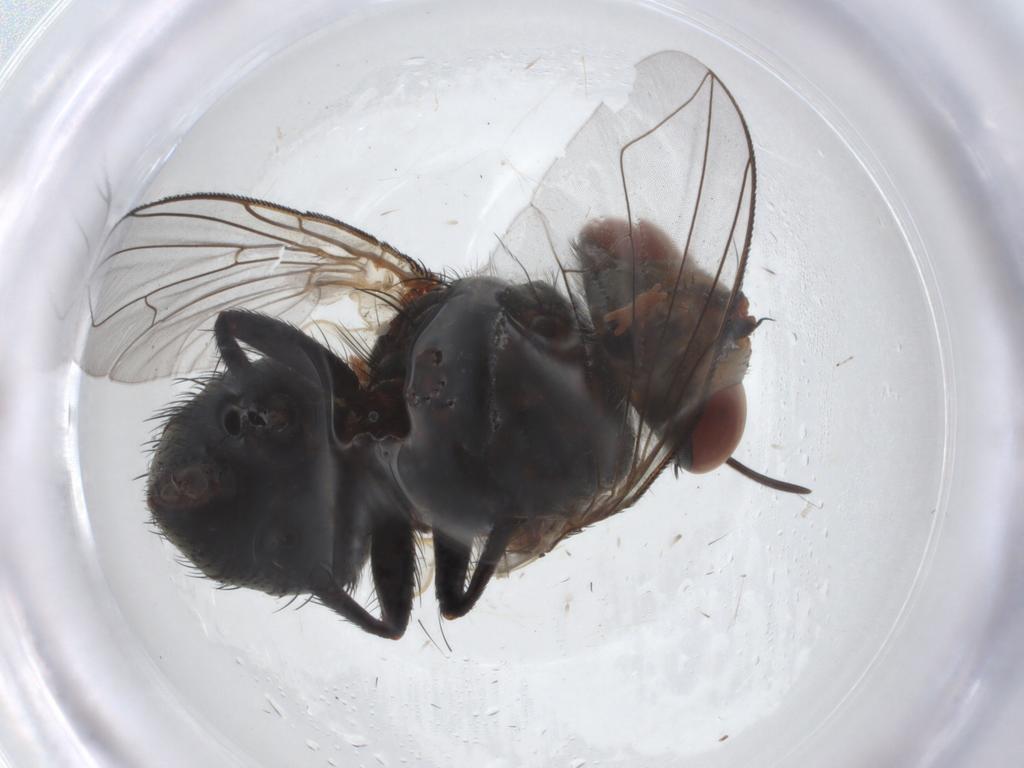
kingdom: Animalia
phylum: Arthropoda
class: Insecta
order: Diptera
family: Tachinidae
